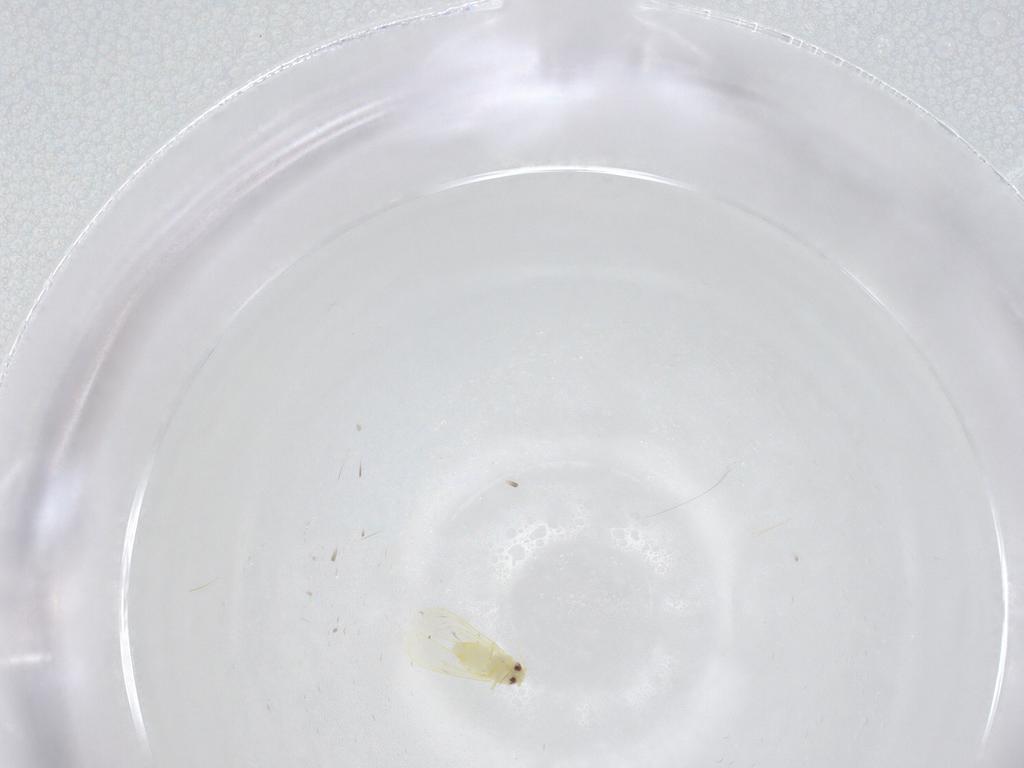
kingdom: Animalia
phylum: Arthropoda
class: Insecta
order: Hemiptera
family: Aleyrodidae
